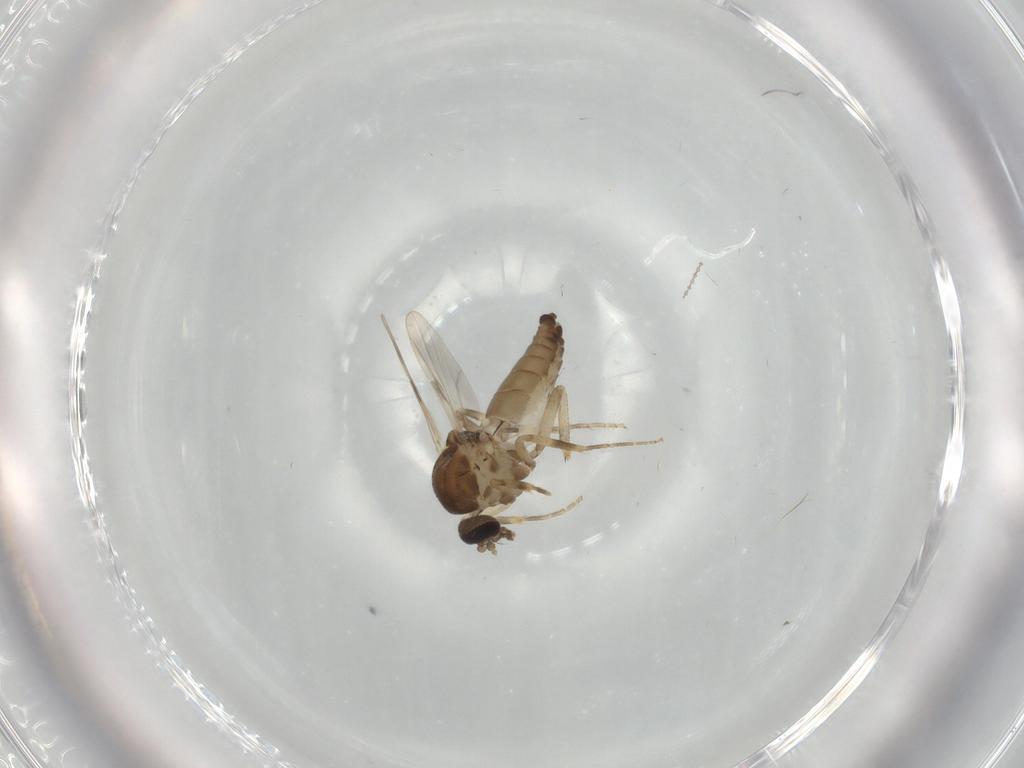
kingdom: Animalia
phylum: Arthropoda
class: Insecta
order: Diptera
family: Ceratopogonidae
